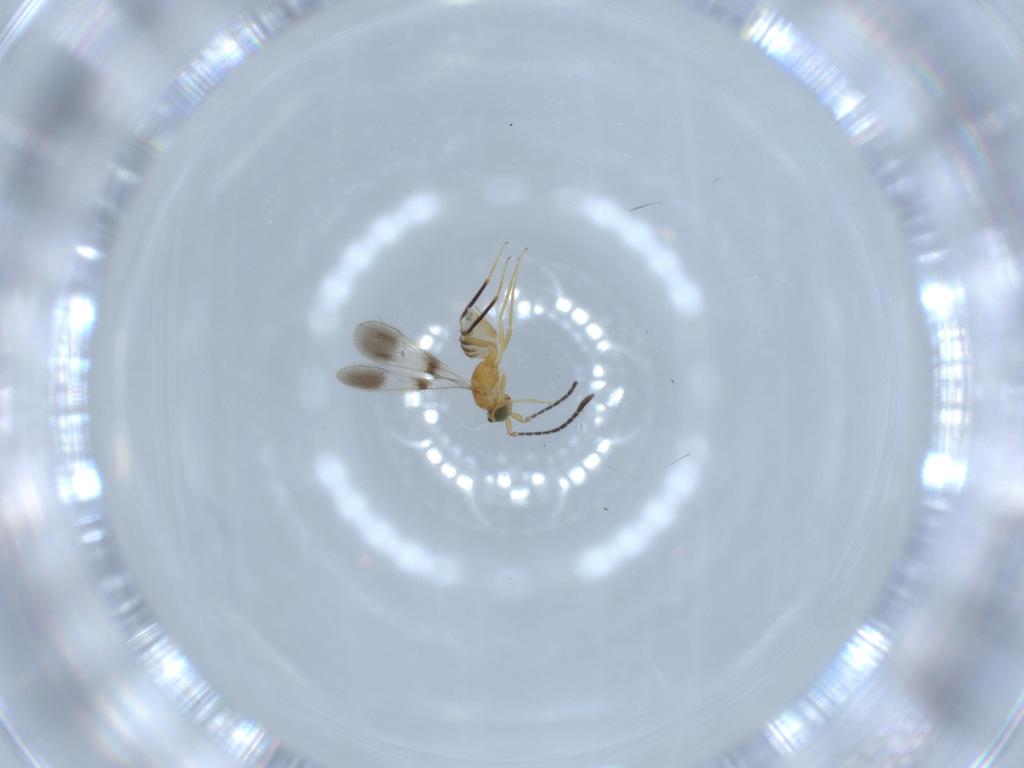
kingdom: Animalia
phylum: Arthropoda
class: Insecta
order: Hymenoptera
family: Mymaridae
